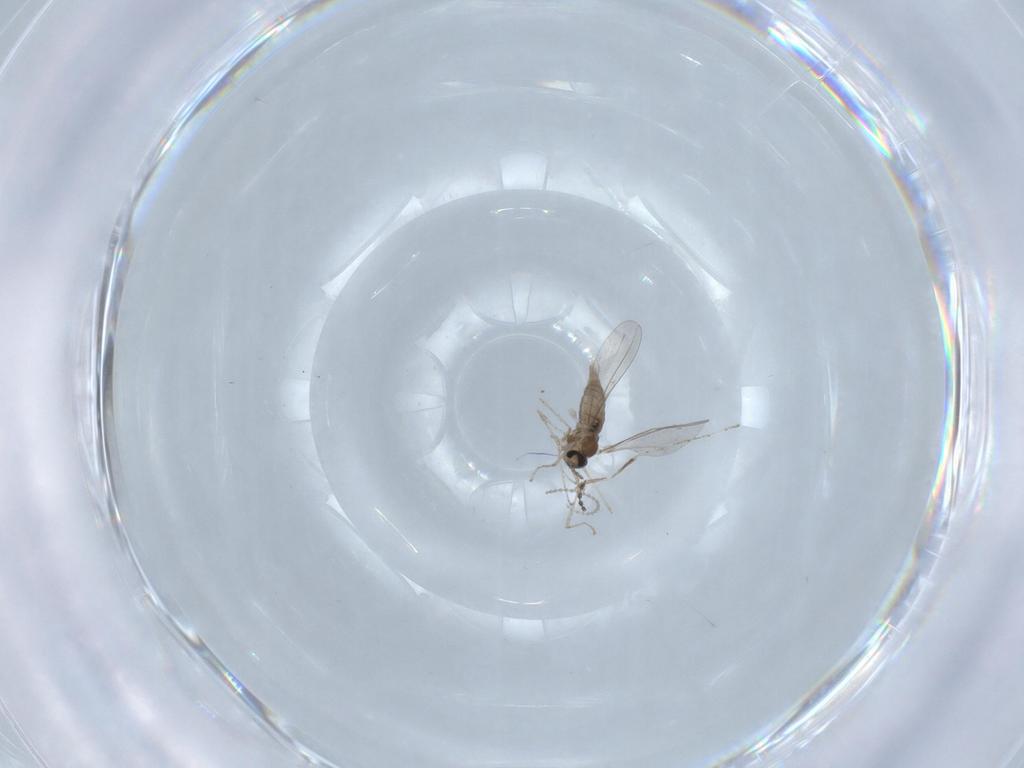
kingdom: Animalia
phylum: Arthropoda
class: Insecta
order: Diptera
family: Cecidomyiidae
